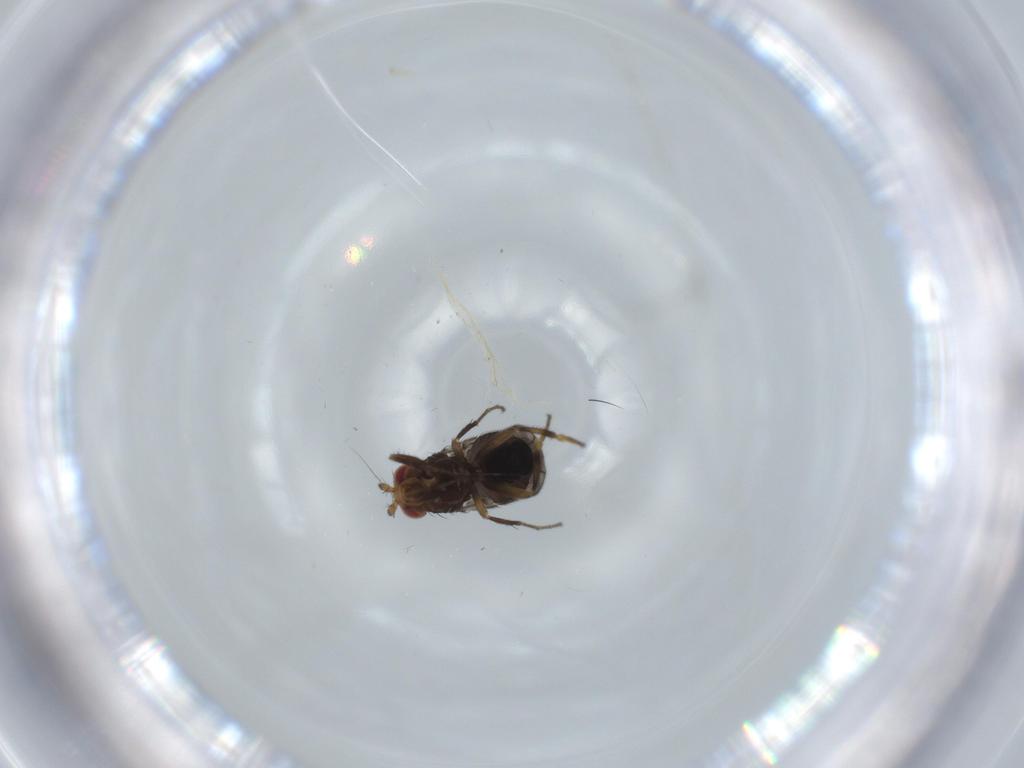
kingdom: Animalia
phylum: Arthropoda
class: Insecta
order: Diptera
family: Sphaeroceridae
